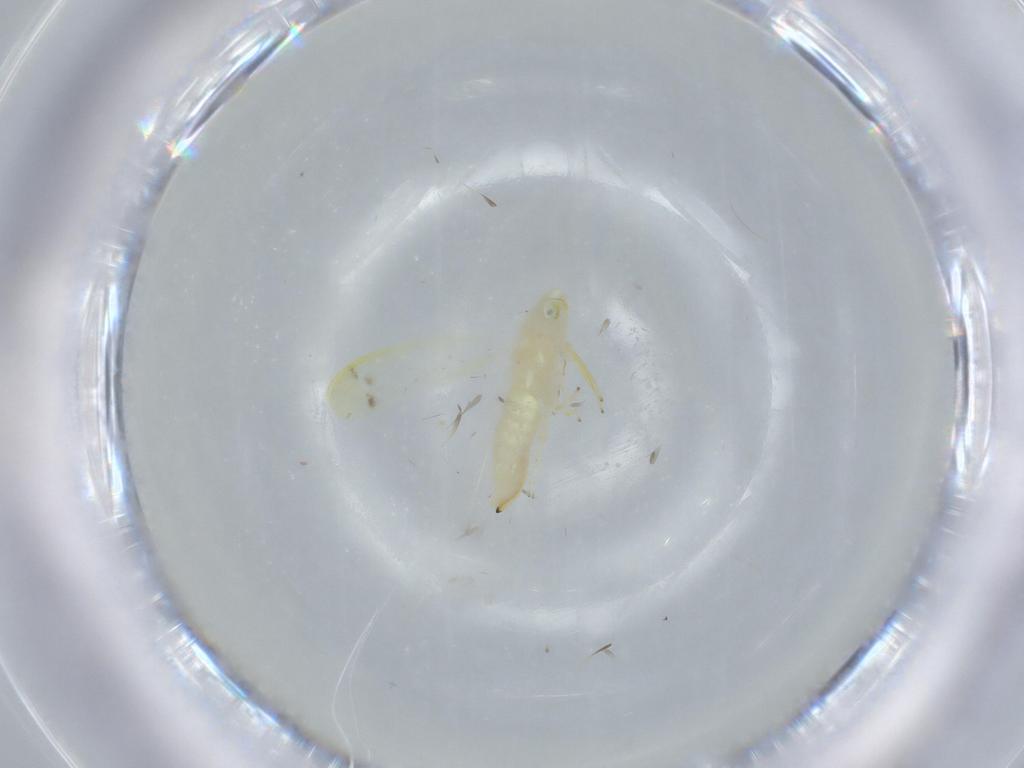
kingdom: Animalia
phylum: Arthropoda
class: Insecta
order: Hemiptera
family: Cicadellidae
